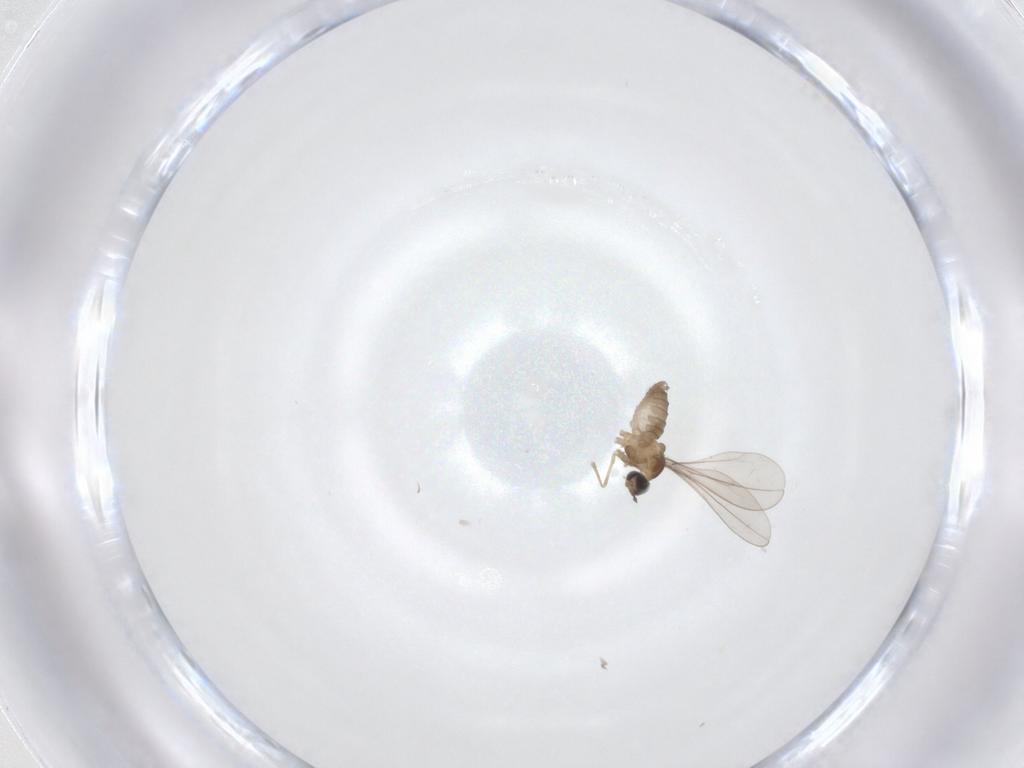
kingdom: Animalia
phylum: Arthropoda
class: Insecta
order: Diptera
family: Cecidomyiidae
